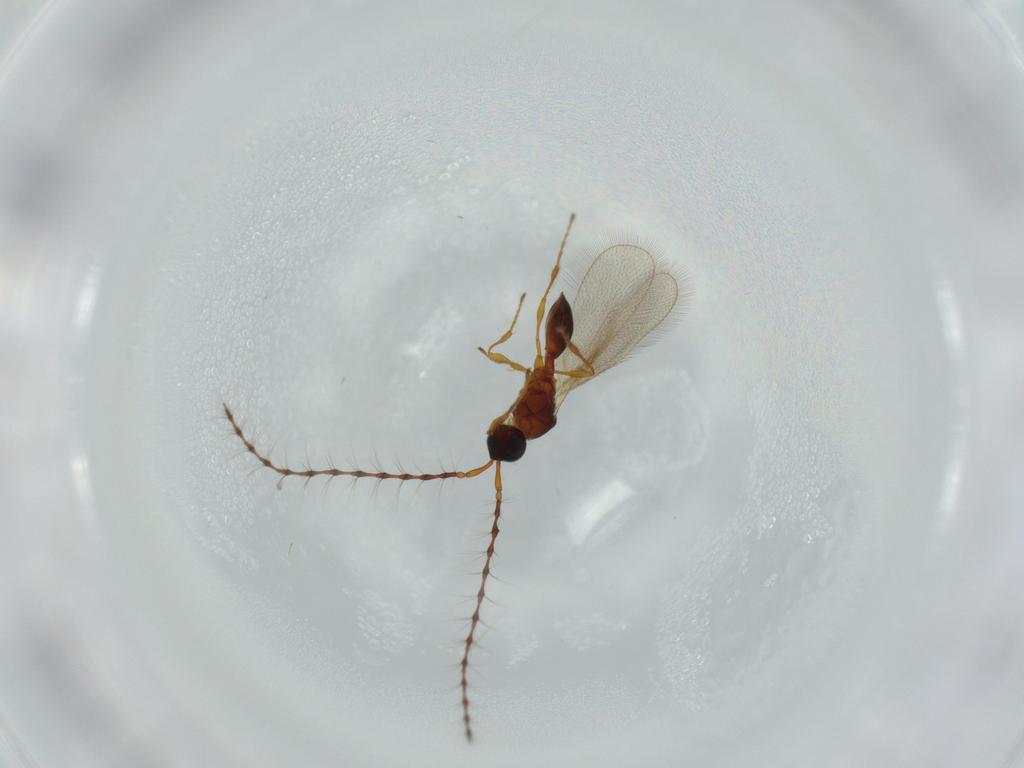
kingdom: Animalia
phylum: Arthropoda
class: Insecta
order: Hymenoptera
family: Diapriidae
